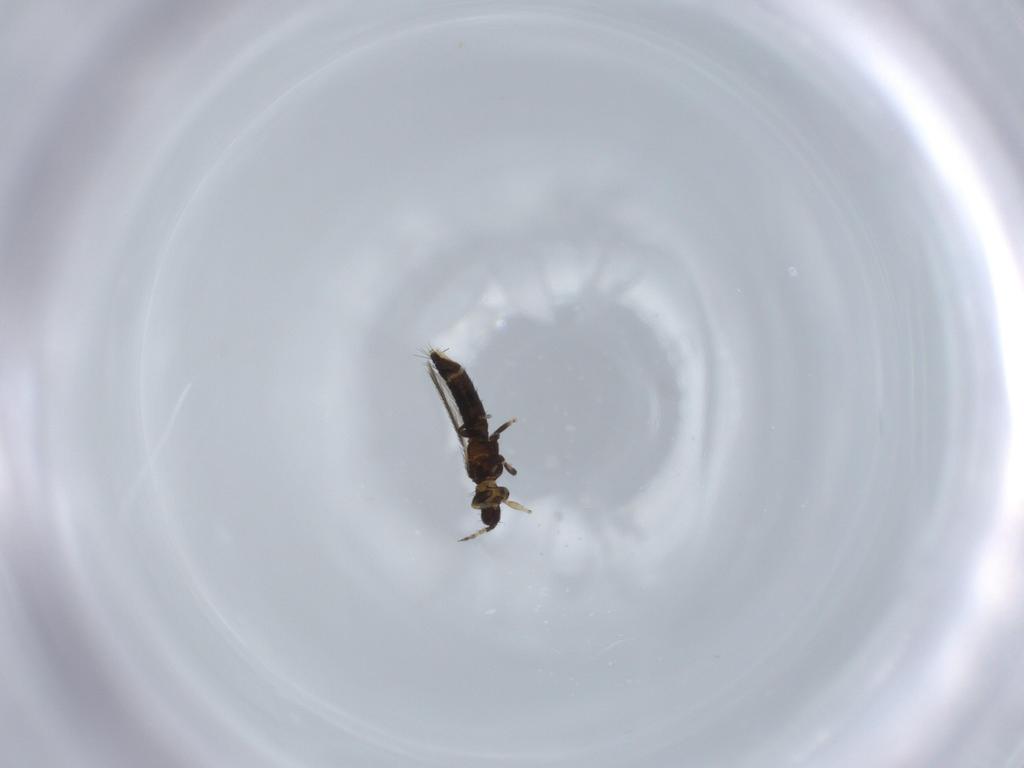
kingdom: Animalia
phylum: Arthropoda
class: Insecta
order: Thysanoptera
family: Thripidae
